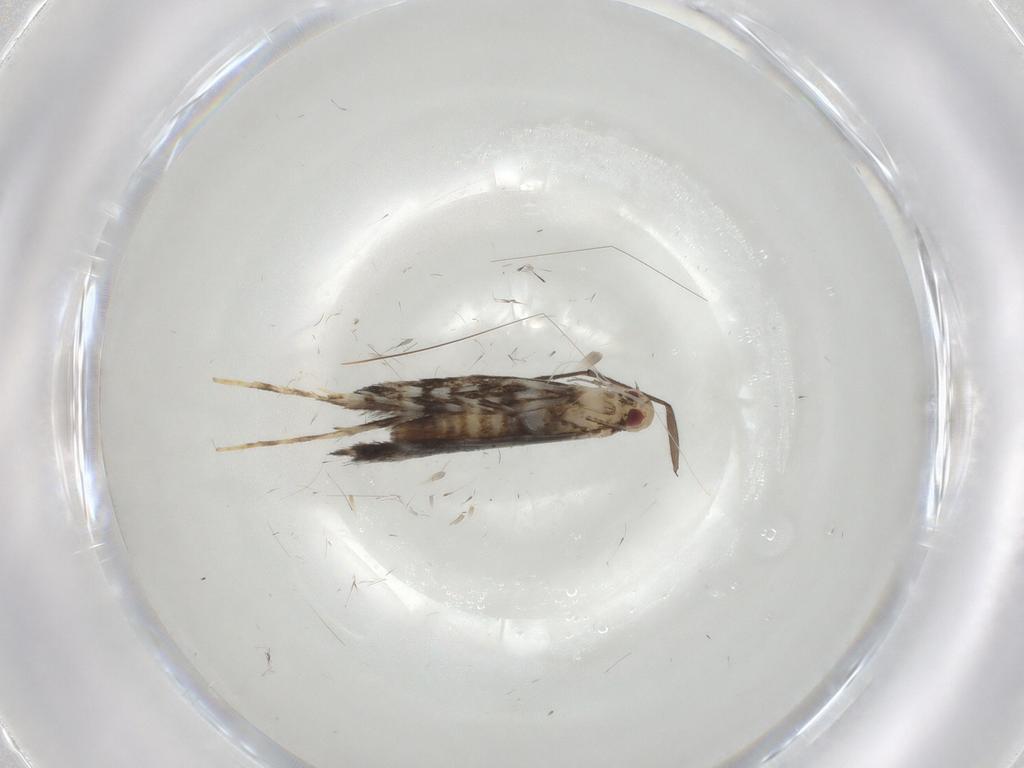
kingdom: Animalia
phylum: Arthropoda
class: Insecta
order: Lepidoptera
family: Gracillariidae
